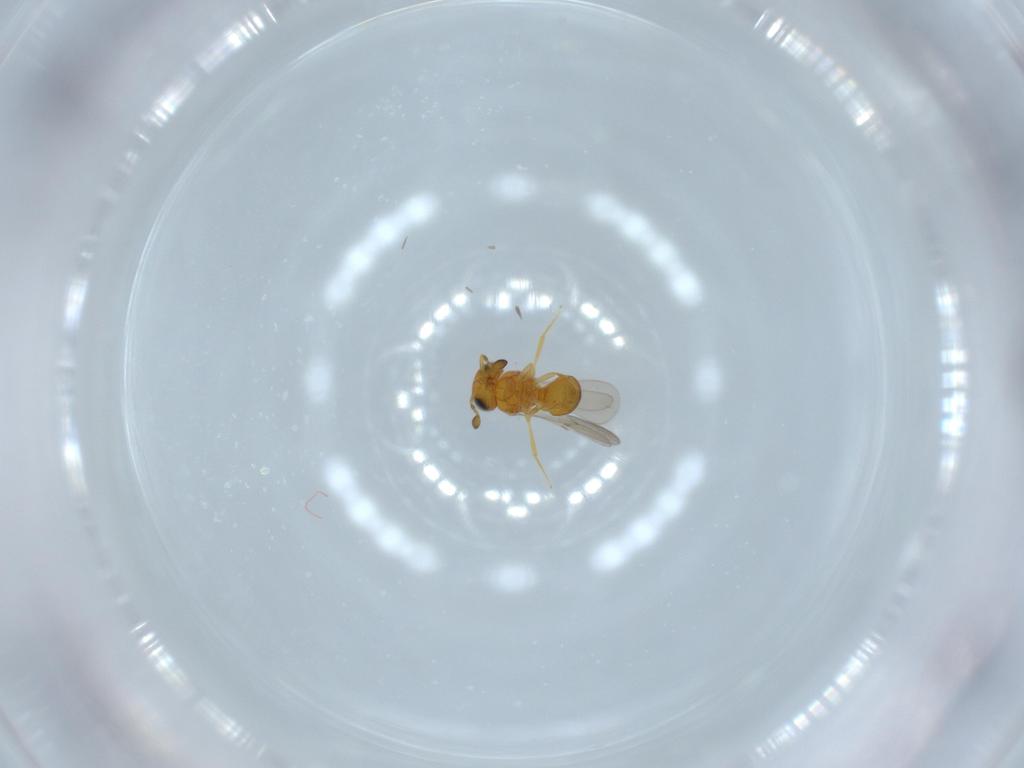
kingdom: Animalia
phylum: Arthropoda
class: Insecta
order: Hymenoptera
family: Scelionidae
